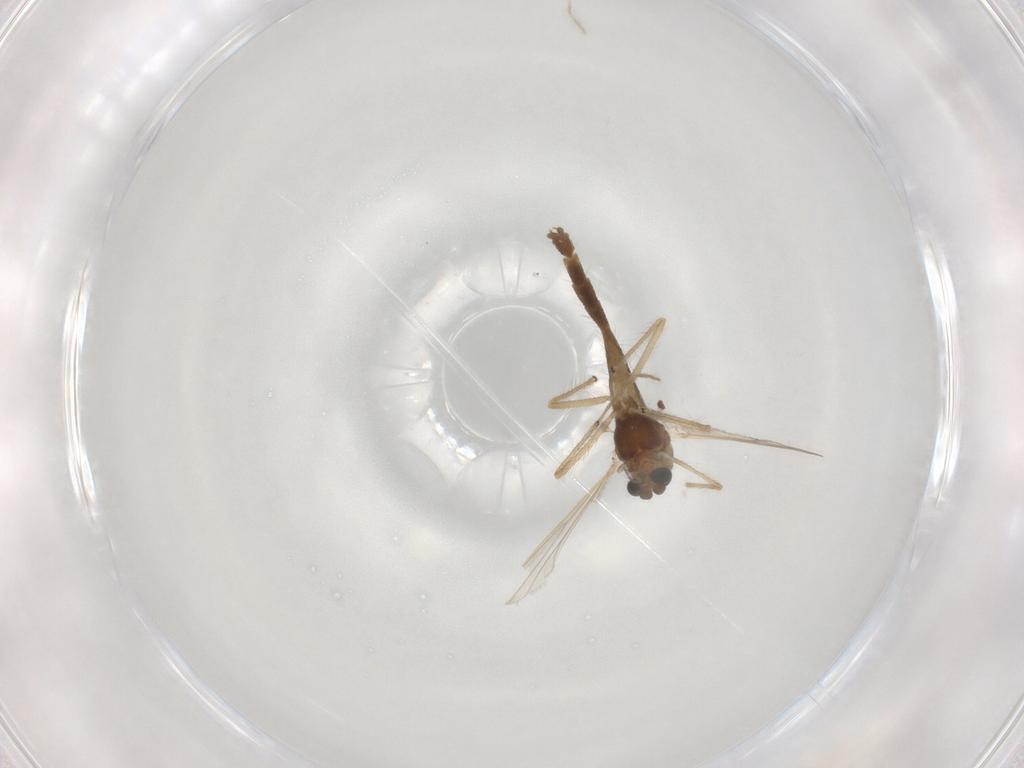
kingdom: Animalia
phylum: Arthropoda
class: Insecta
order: Diptera
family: Chironomidae
